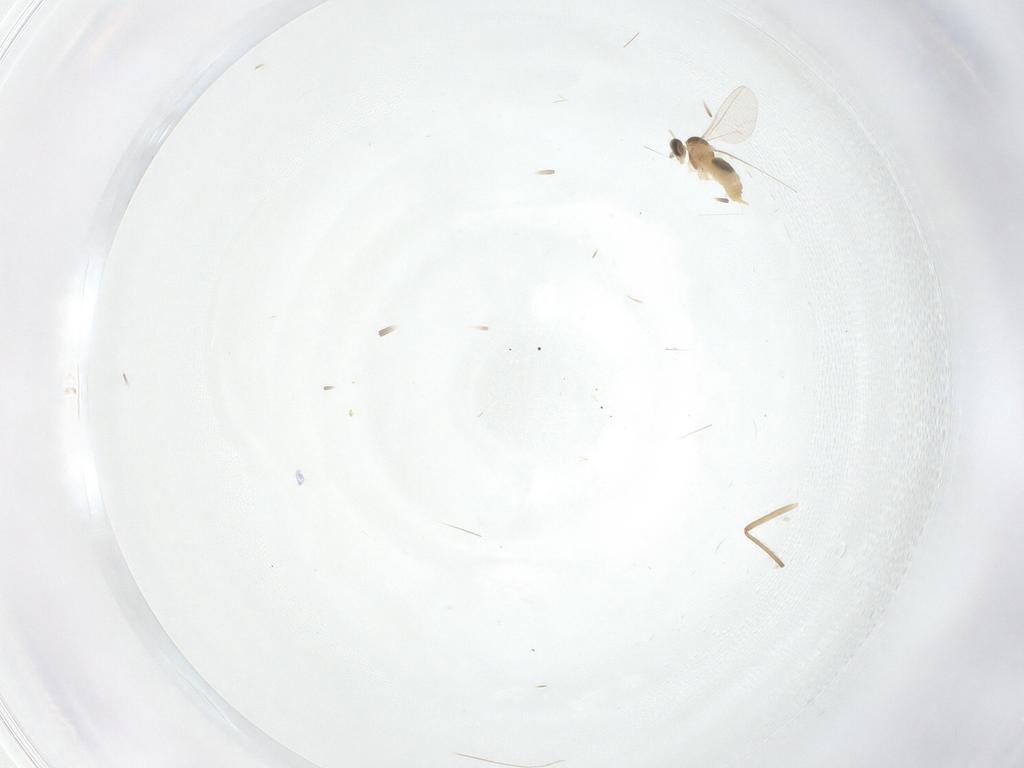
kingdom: Animalia
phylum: Arthropoda
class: Insecta
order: Diptera
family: Cecidomyiidae
